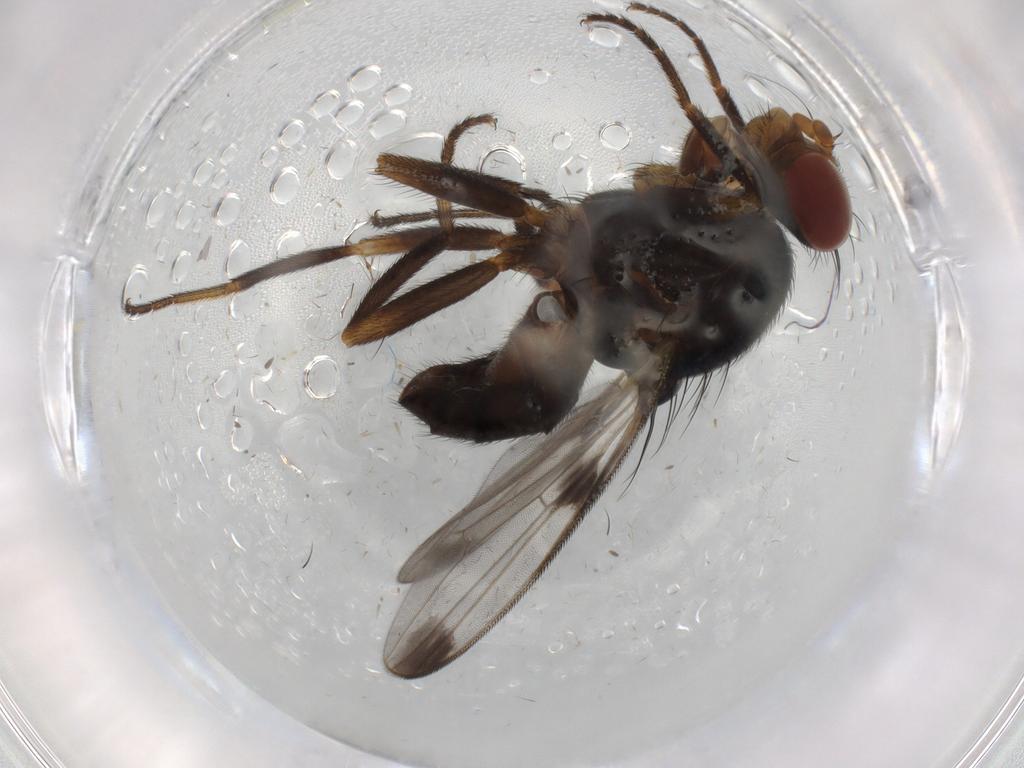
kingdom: Animalia
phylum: Arthropoda
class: Insecta
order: Diptera
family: Ulidiidae
